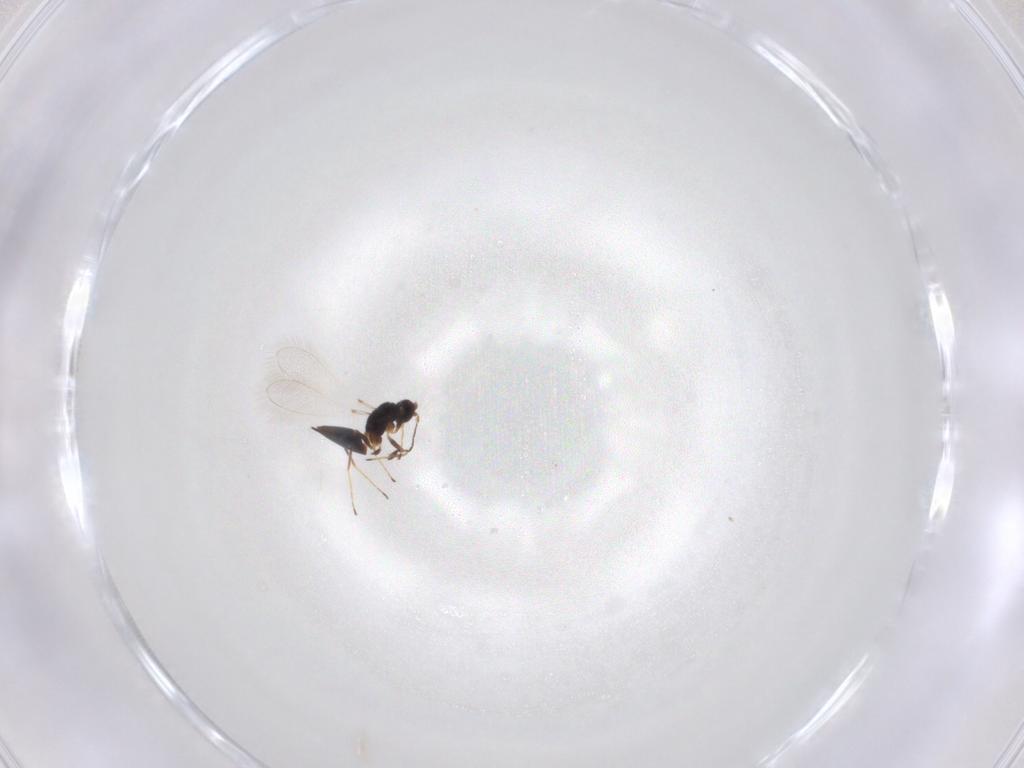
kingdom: Animalia
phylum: Arthropoda
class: Insecta
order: Hymenoptera
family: Mymaridae
